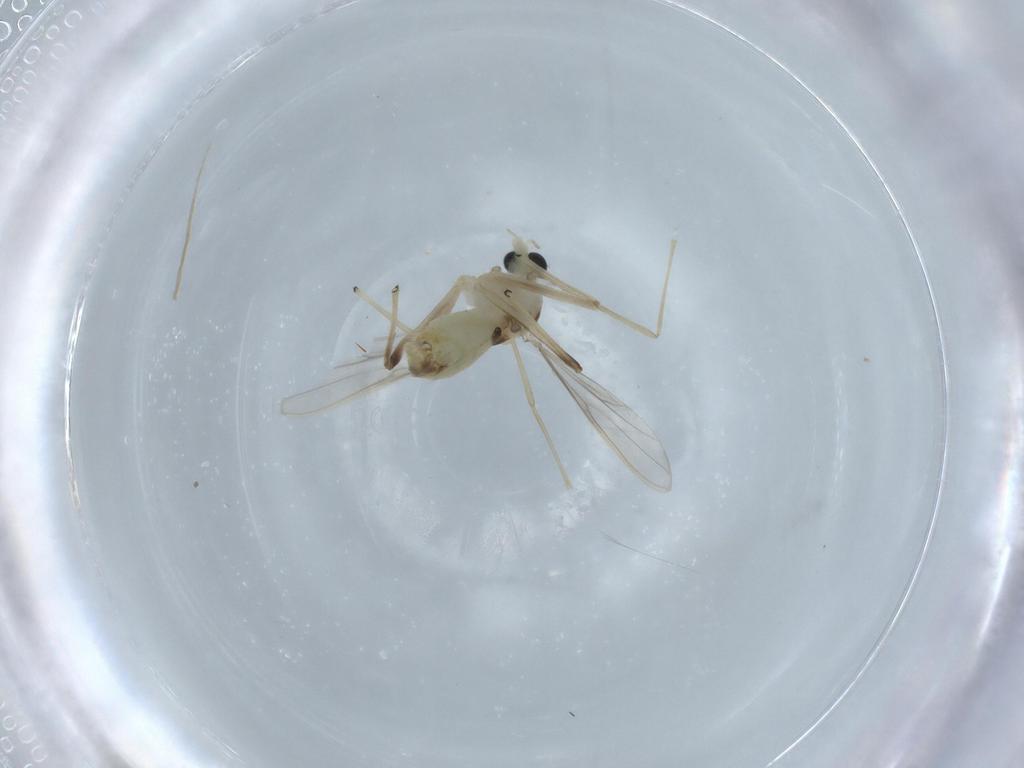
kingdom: Animalia
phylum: Arthropoda
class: Insecta
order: Diptera
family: Chironomidae
